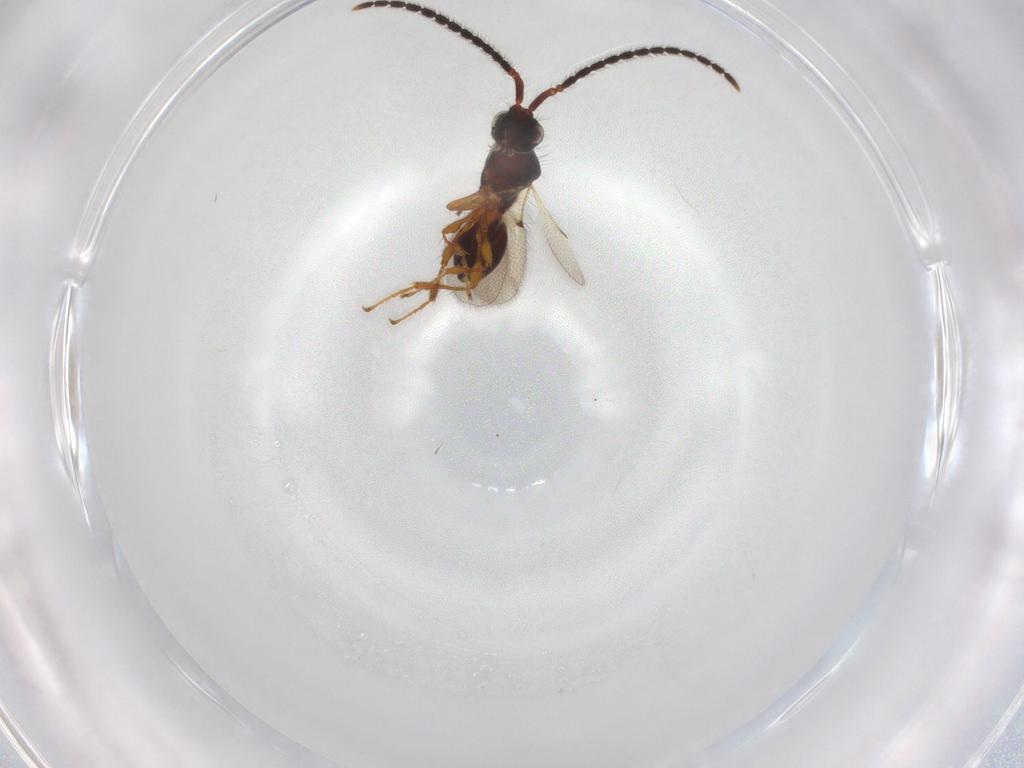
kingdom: Animalia
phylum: Arthropoda
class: Insecta
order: Hymenoptera
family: Diapriidae
